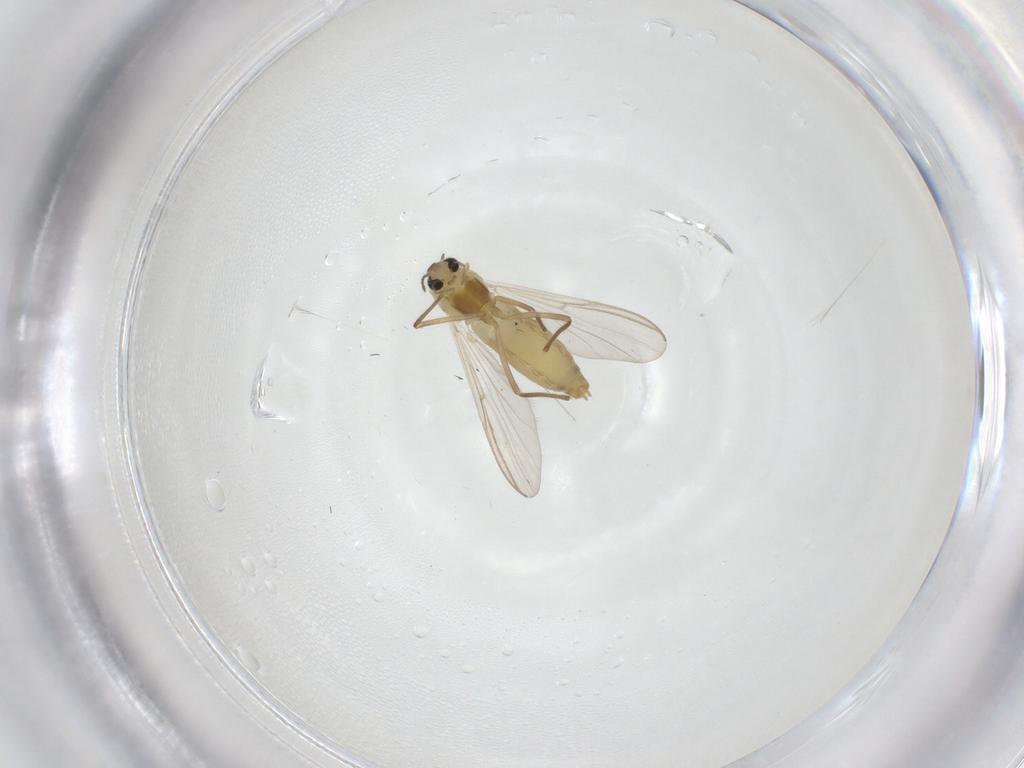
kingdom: Animalia
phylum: Arthropoda
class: Insecta
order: Diptera
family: Chironomidae
